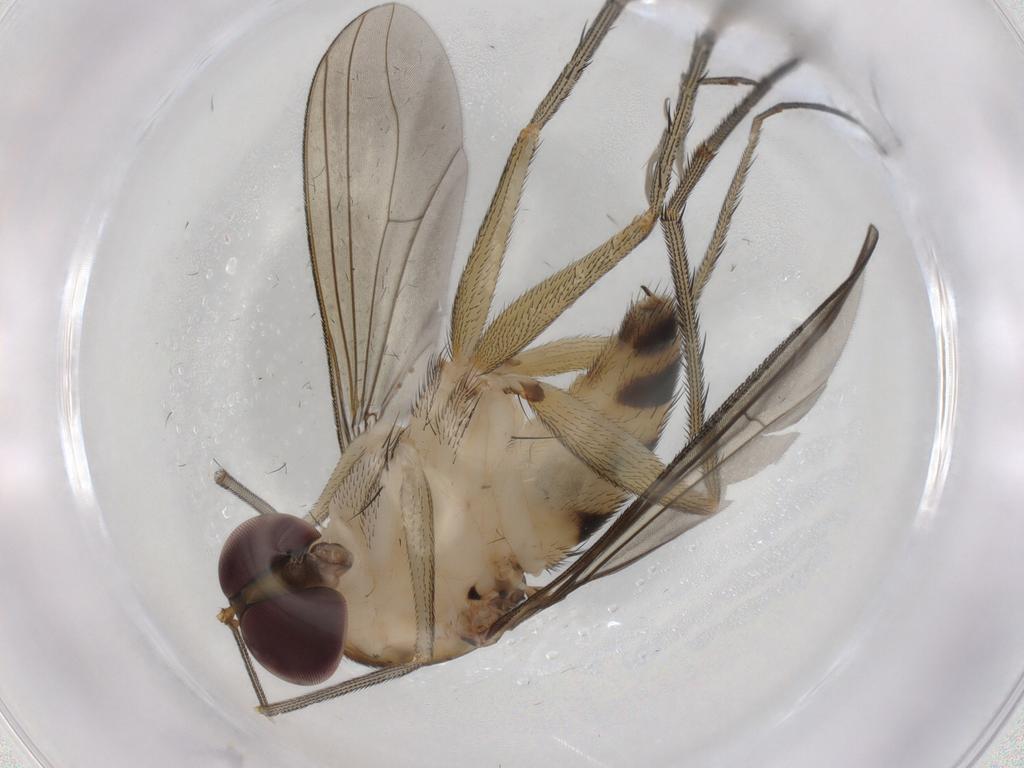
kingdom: Animalia
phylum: Arthropoda
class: Insecta
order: Diptera
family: Dolichopodidae
